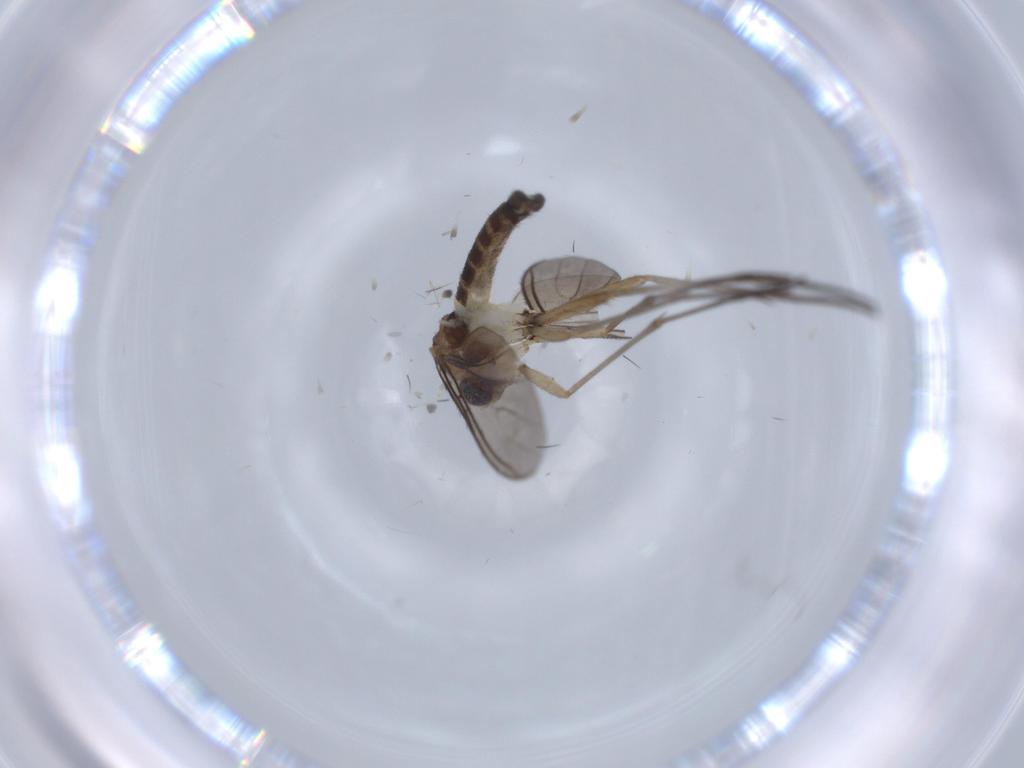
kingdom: Animalia
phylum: Arthropoda
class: Insecta
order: Diptera
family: Sciaridae
